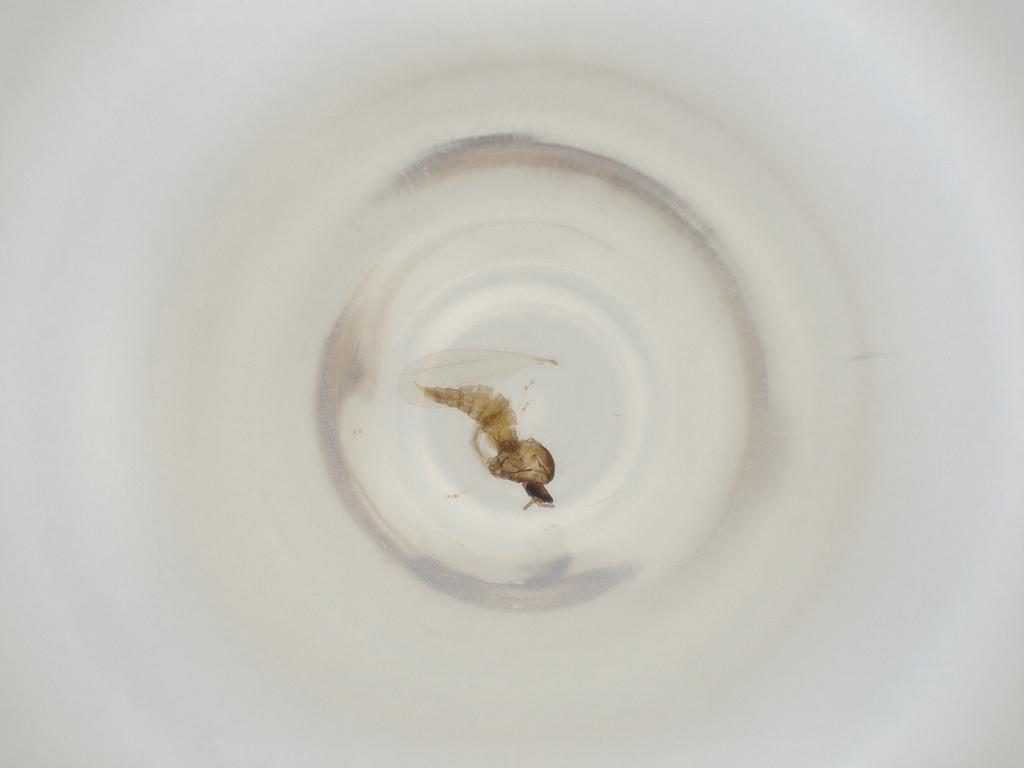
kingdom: Animalia
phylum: Arthropoda
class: Insecta
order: Diptera
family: Cecidomyiidae
